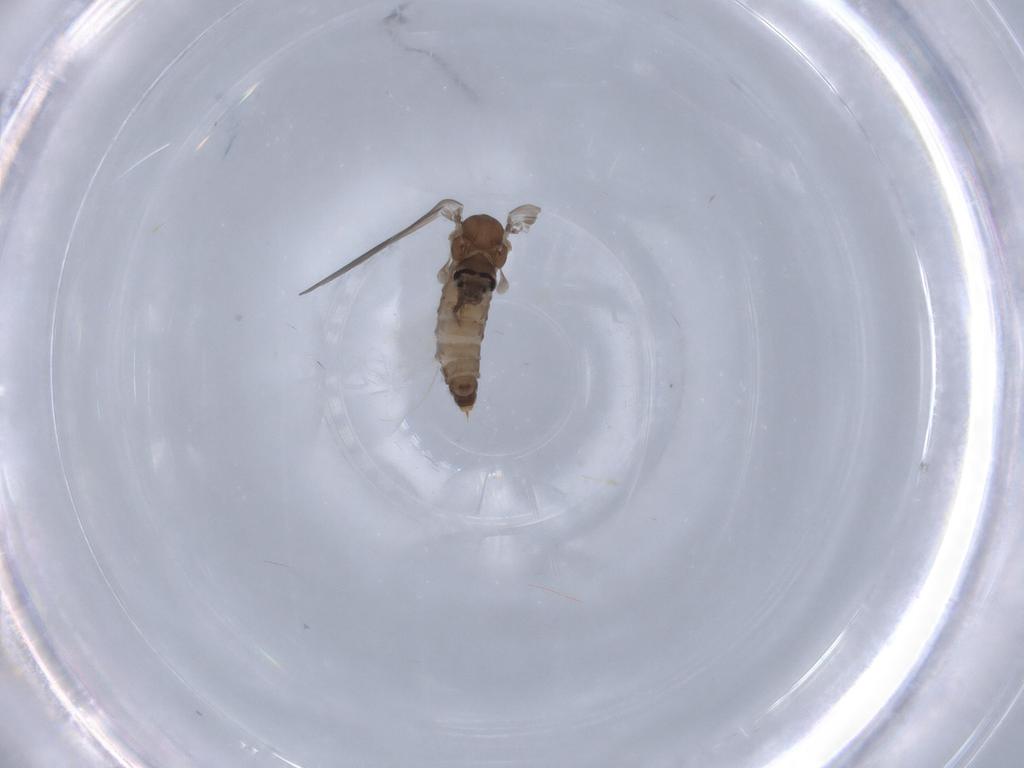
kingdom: Animalia
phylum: Arthropoda
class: Insecta
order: Diptera
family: Psychodidae
